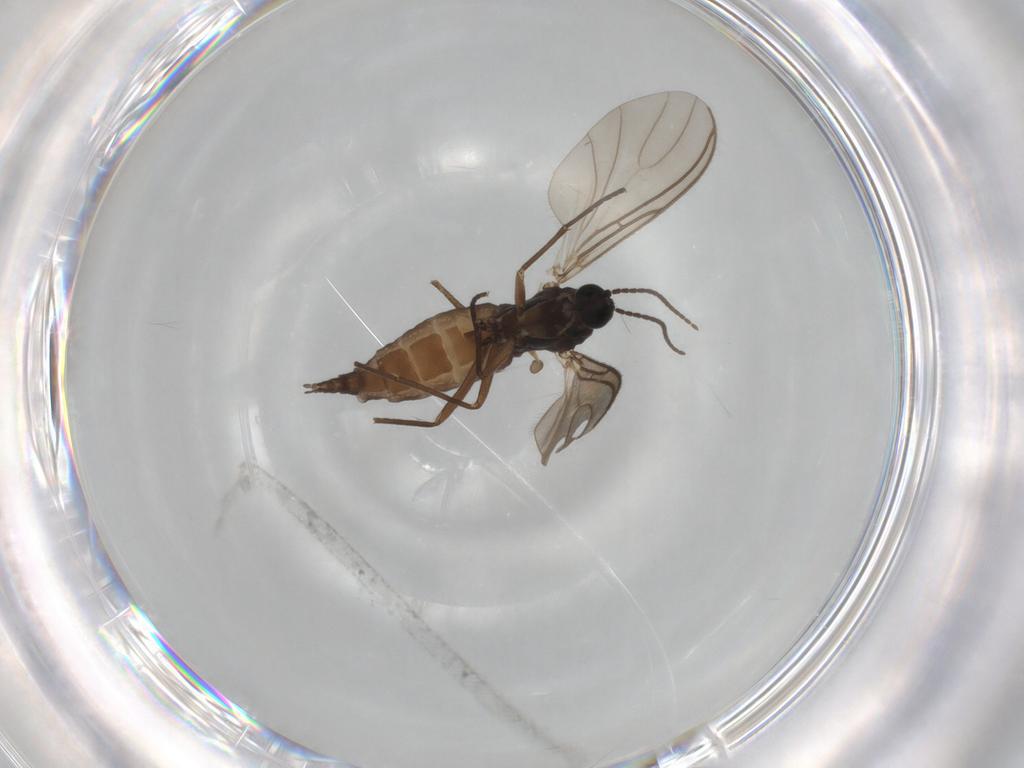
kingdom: Animalia
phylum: Arthropoda
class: Insecta
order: Diptera
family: Sciaridae
